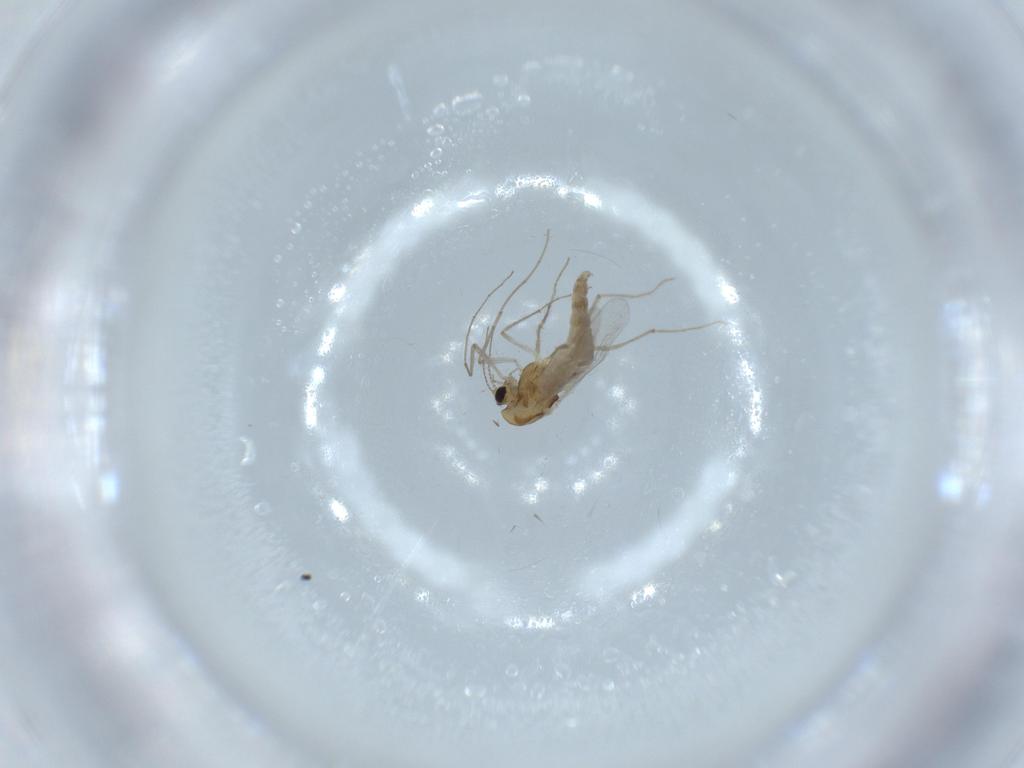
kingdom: Animalia
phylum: Arthropoda
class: Insecta
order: Diptera
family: Chironomidae
